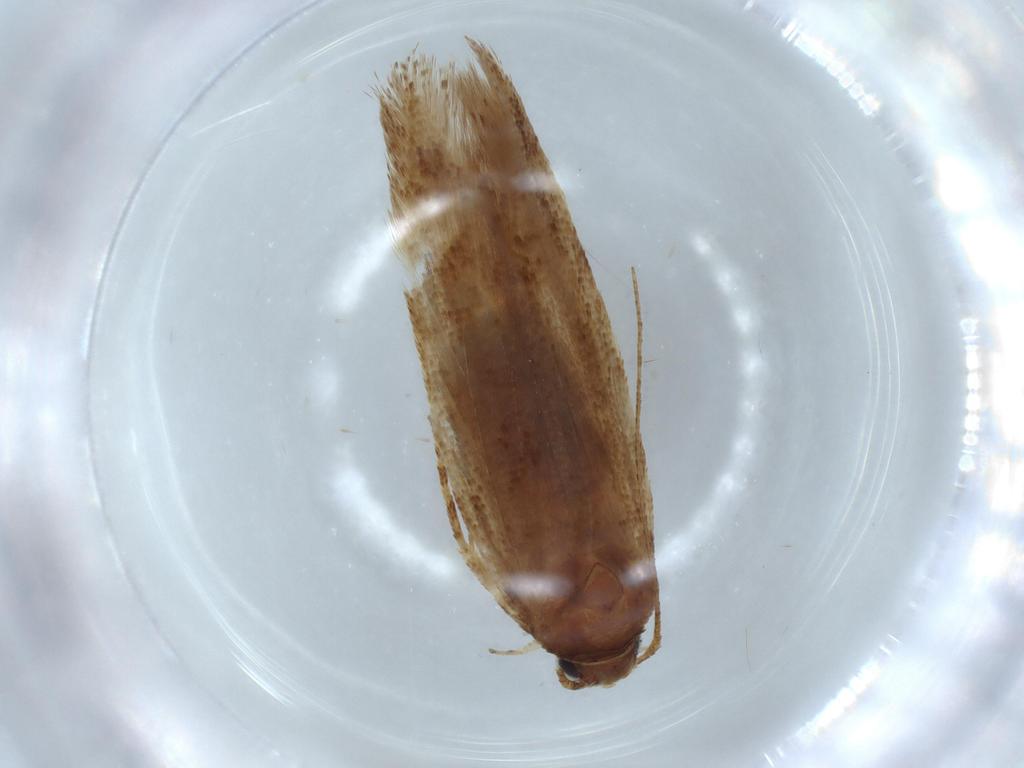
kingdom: Animalia
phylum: Arthropoda
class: Insecta
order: Lepidoptera
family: Gelechiidae
